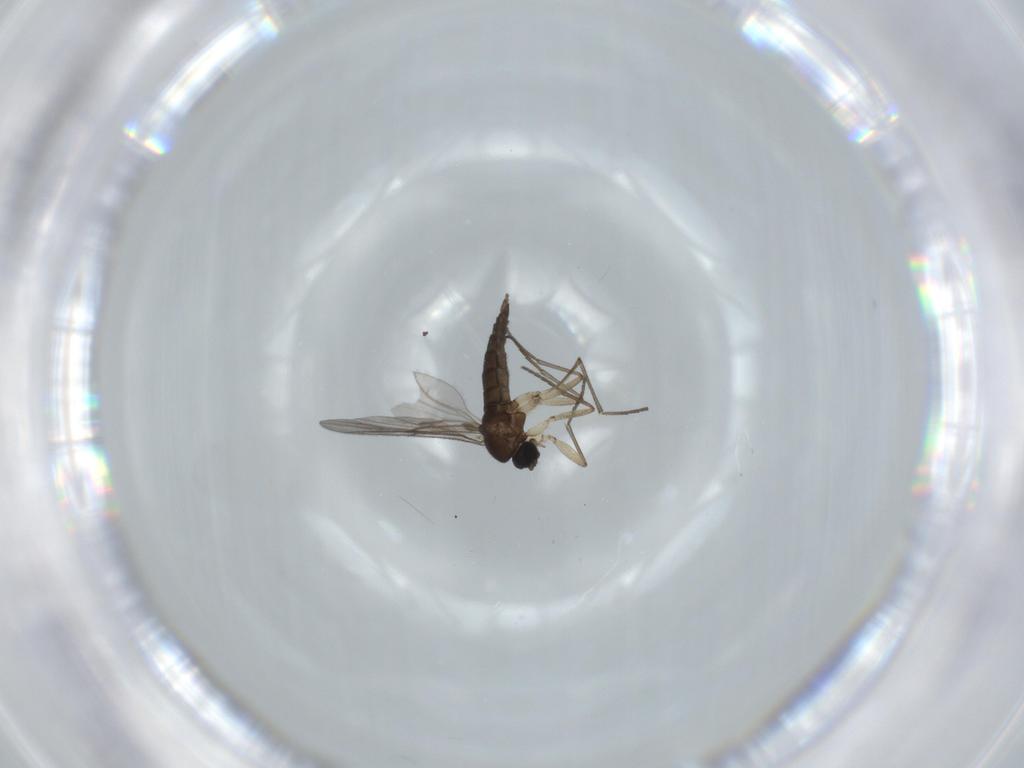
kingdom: Animalia
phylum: Arthropoda
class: Insecta
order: Diptera
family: Sciaridae
